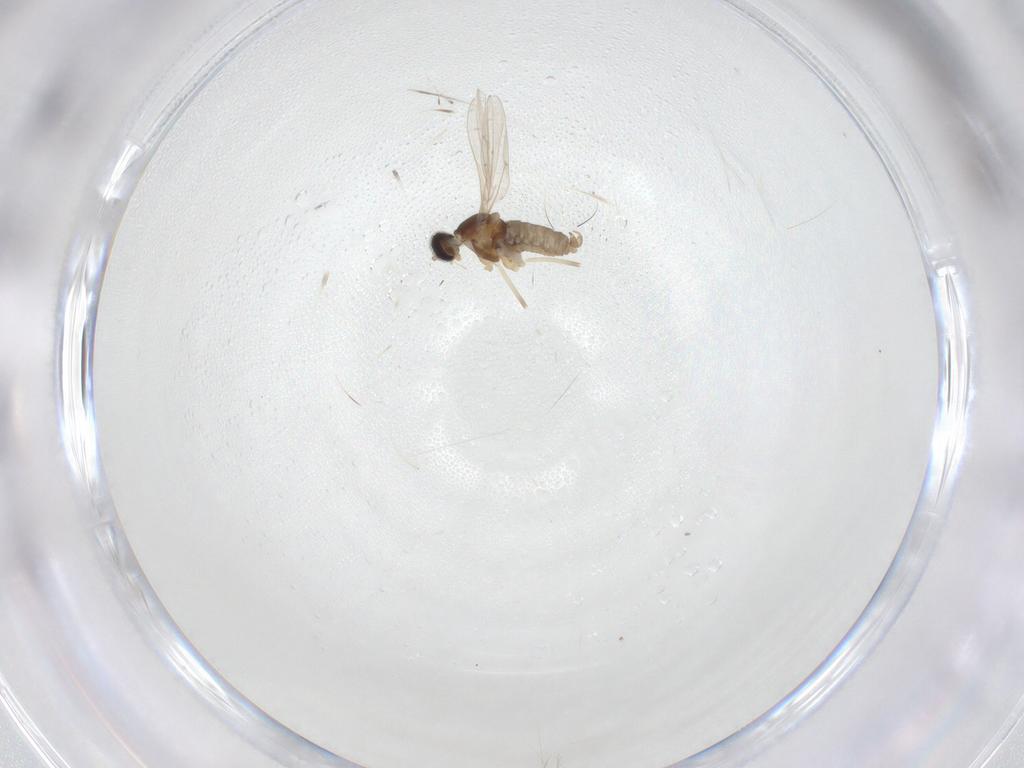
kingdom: Animalia
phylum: Arthropoda
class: Insecta
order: Diptera
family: Cecidomyiidae
